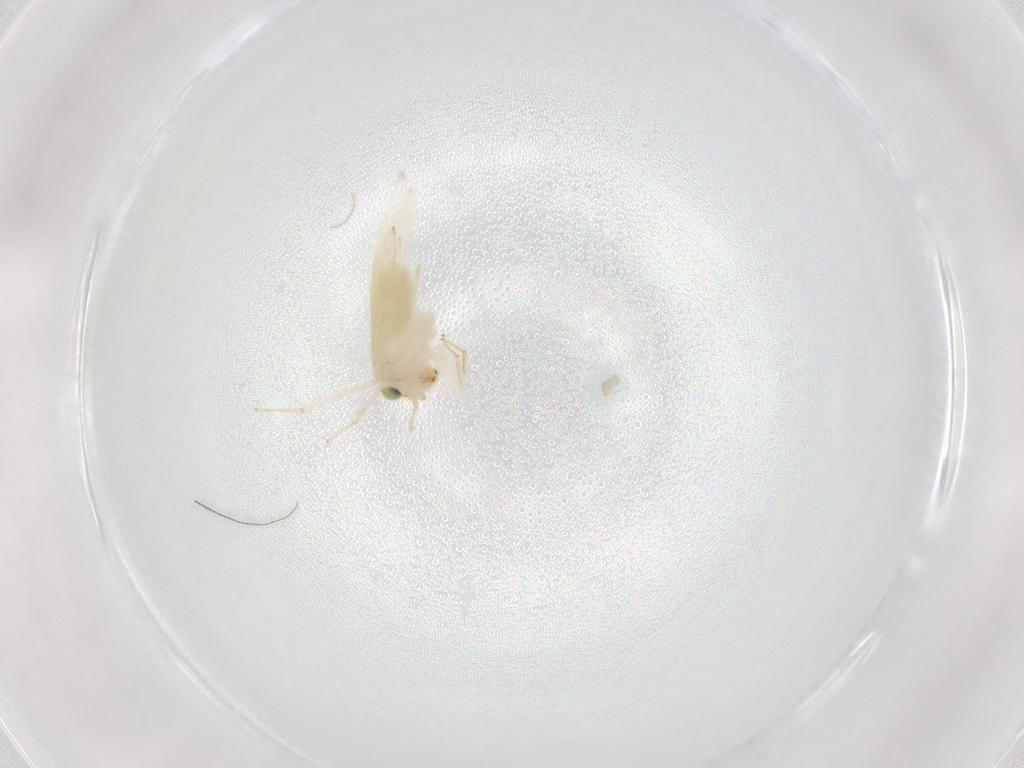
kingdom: Animalia
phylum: Arthropoda
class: Insecta
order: Psocodea
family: Lepidopsocidae
